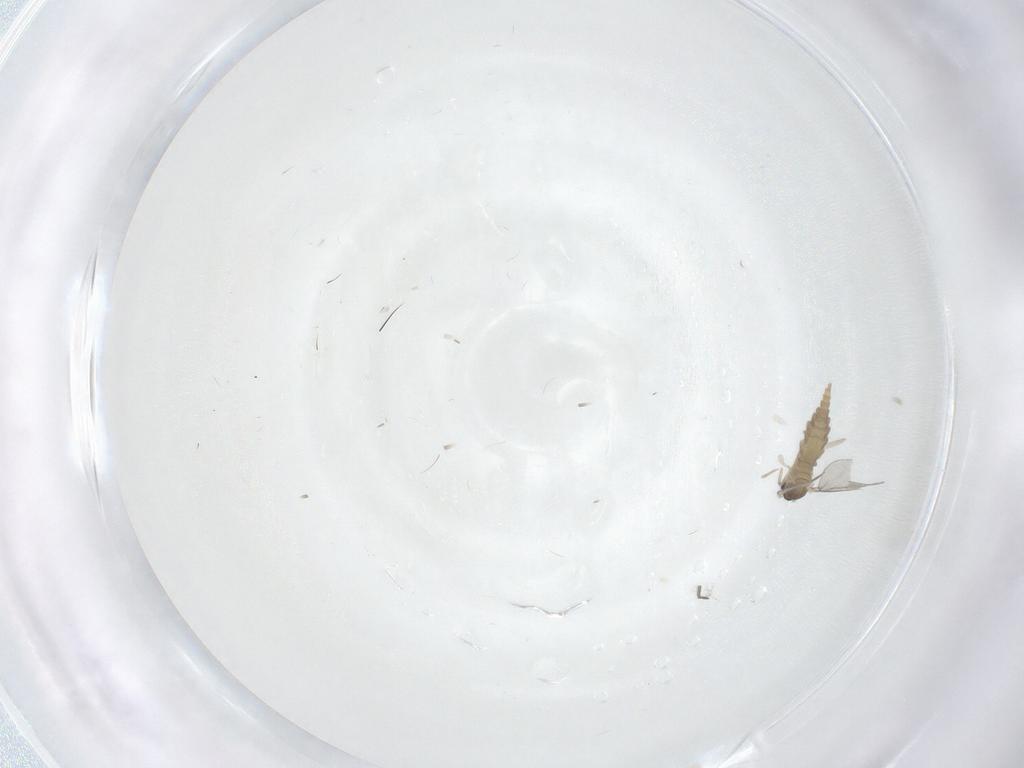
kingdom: Animalia
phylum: Arthropoda
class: Insecta
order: Diptera
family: Cecidomyiidae
